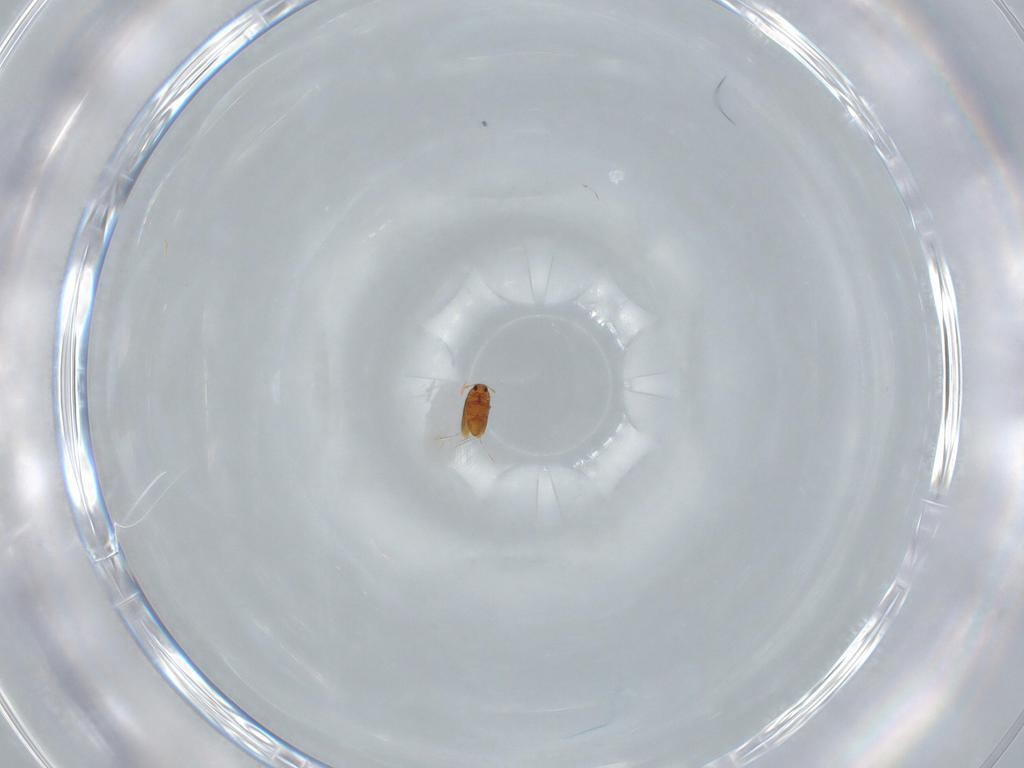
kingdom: Animalia
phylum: Arthropoda
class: Insecta
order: Coleoptera
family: Ptiliidae
